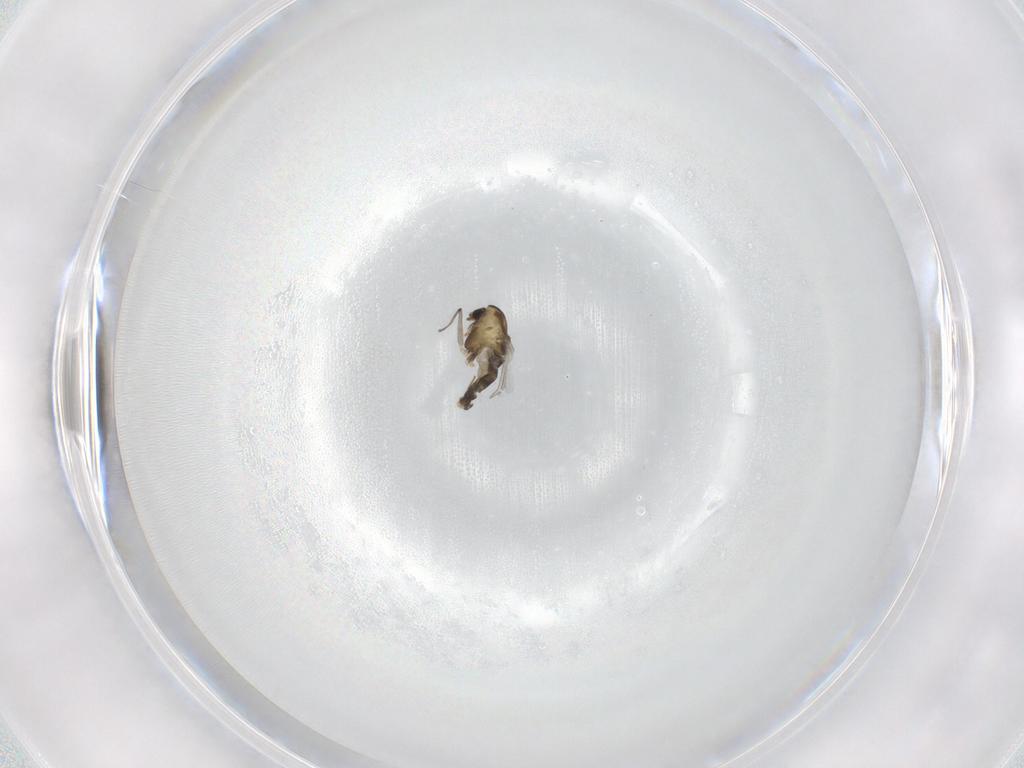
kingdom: Animalia
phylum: Arthropoda
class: Insecta
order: Diptera
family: Chironomidae
